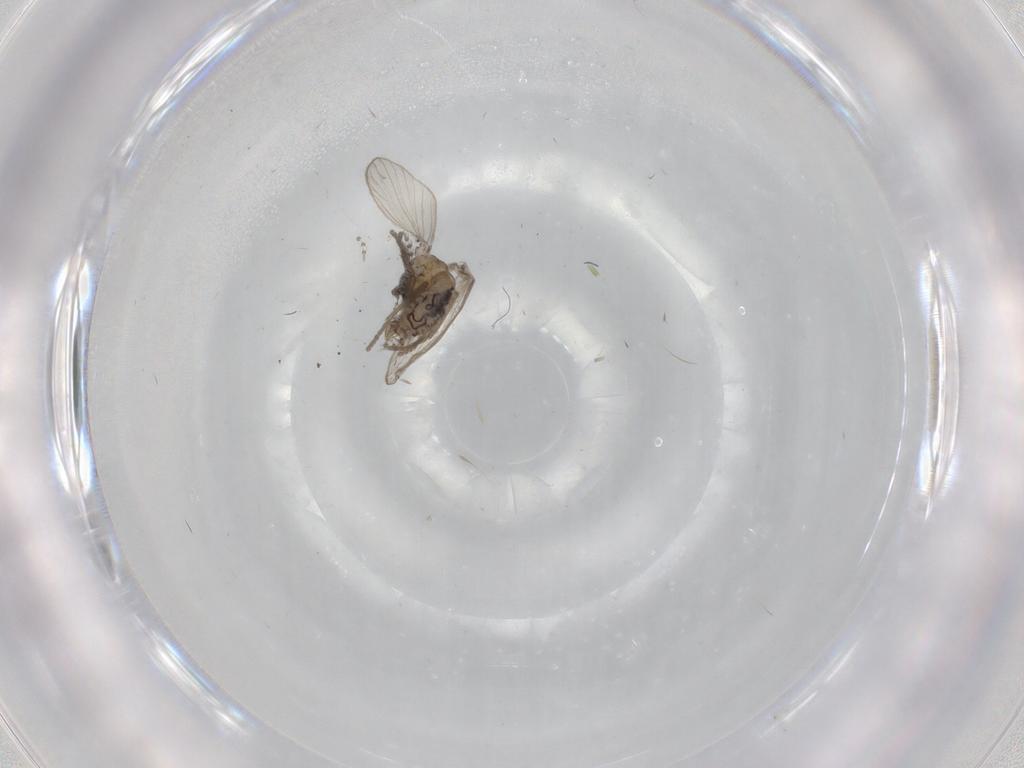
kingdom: Animalia
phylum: Arthropoda
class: Insecta
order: Diptera
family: Psychodidae
